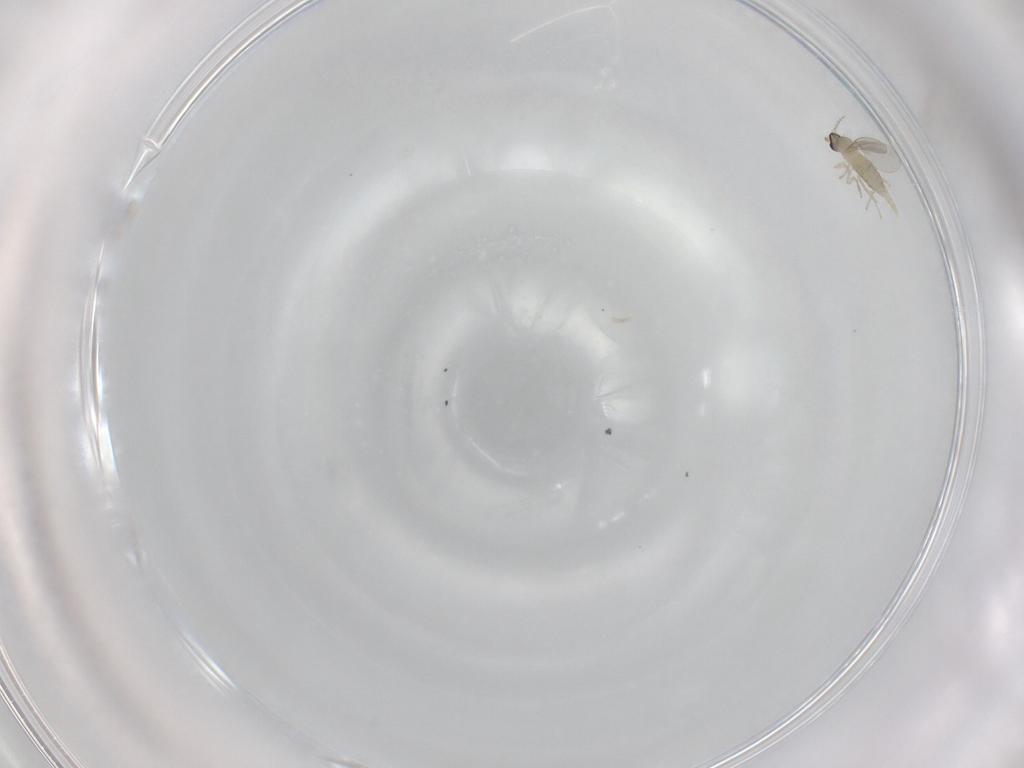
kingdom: Animalia
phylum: Arthropoda
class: Insecta
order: Diptera
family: Cecidomyiidae
